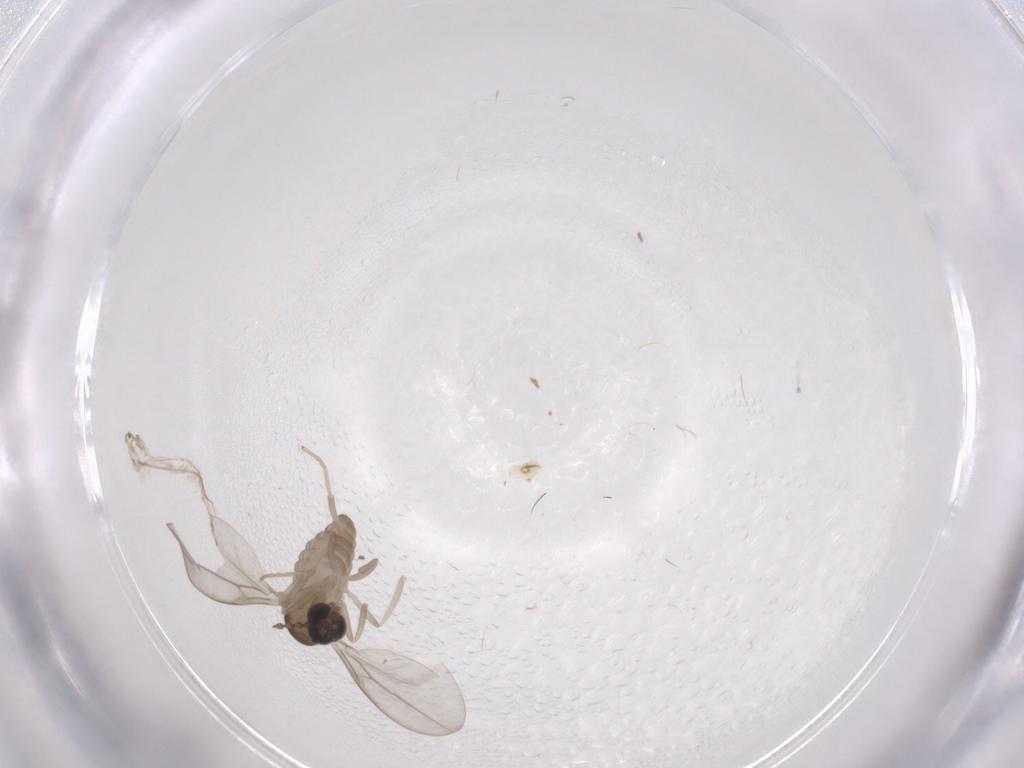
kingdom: Animalia
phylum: Arthropoda
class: Insecta
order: Diptera
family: Cecidomyiidae
